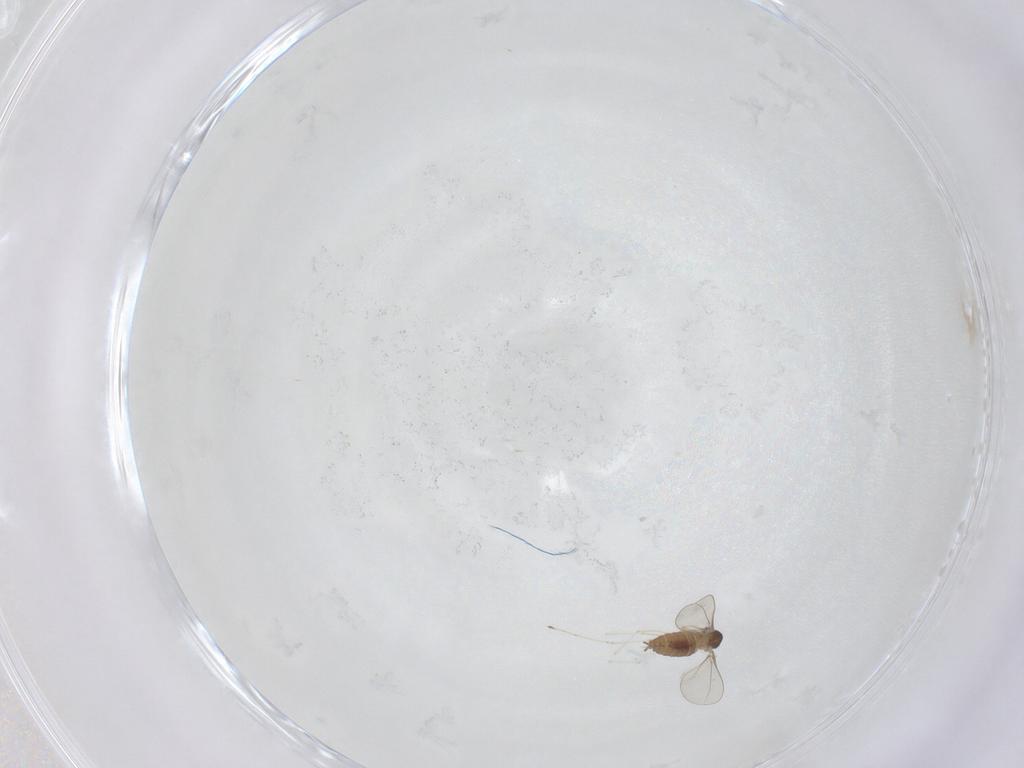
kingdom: Animalia
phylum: Arthropoda
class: Insecta
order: Diptera
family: Cecidomyiidae
